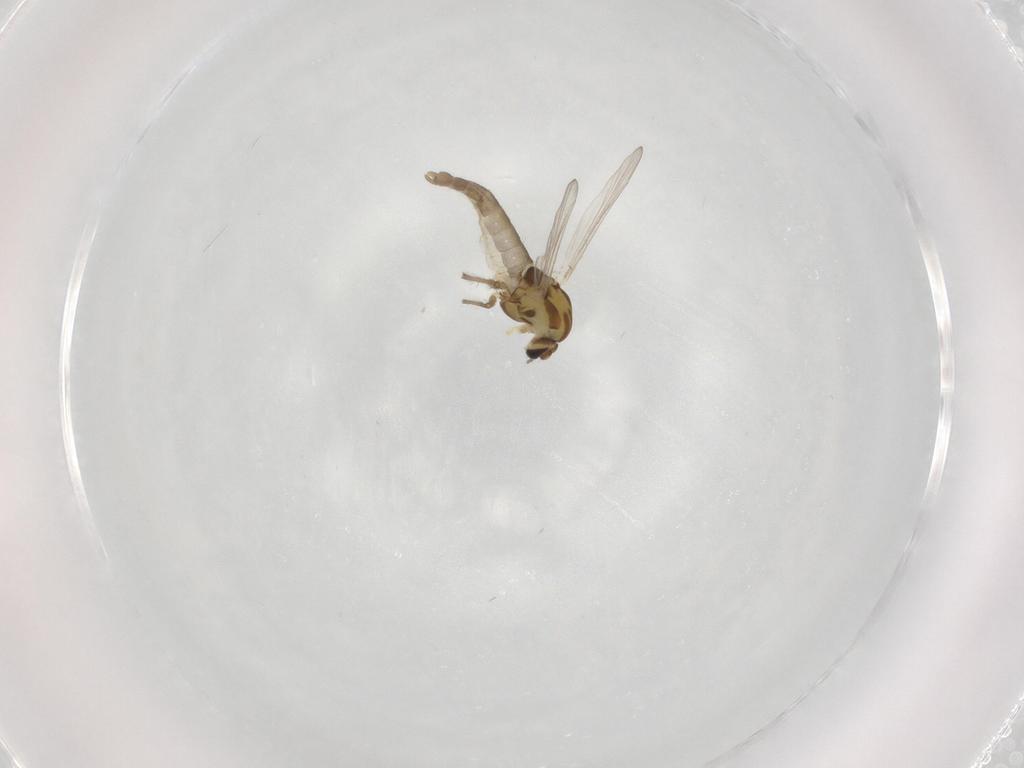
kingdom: Animalia
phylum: Arthropoda
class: Insecta
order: Diptera
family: Chironomidae
